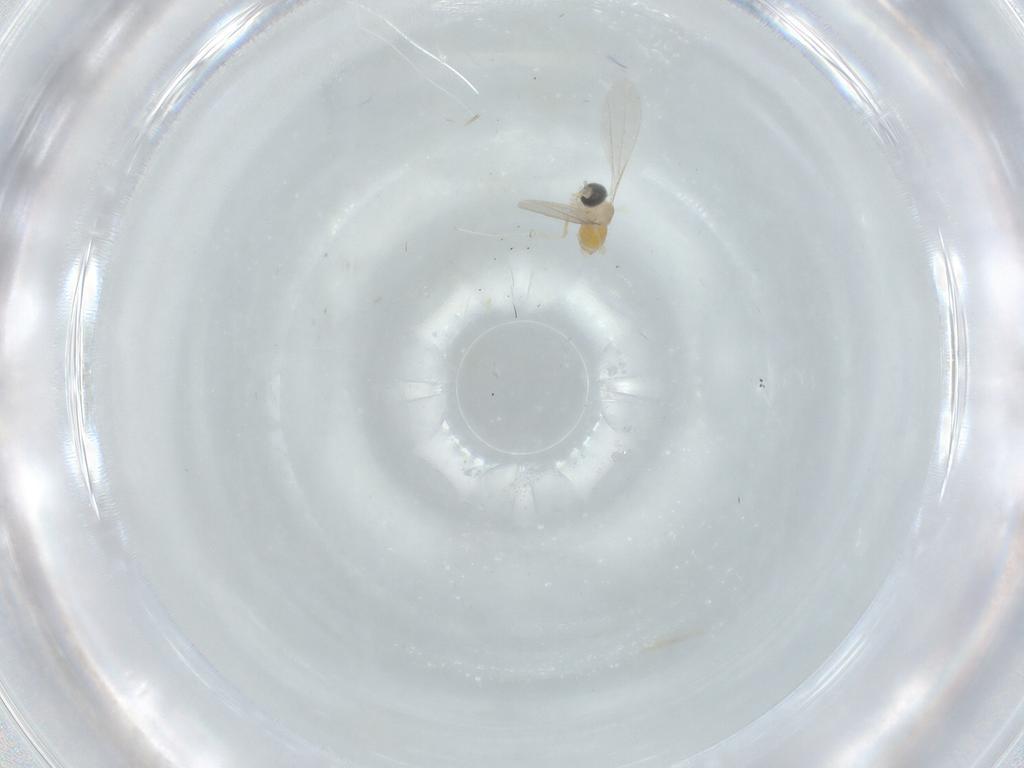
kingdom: Animalia
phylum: Arthropoda
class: Insecta
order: Diptera
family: Cecidomyiidae
